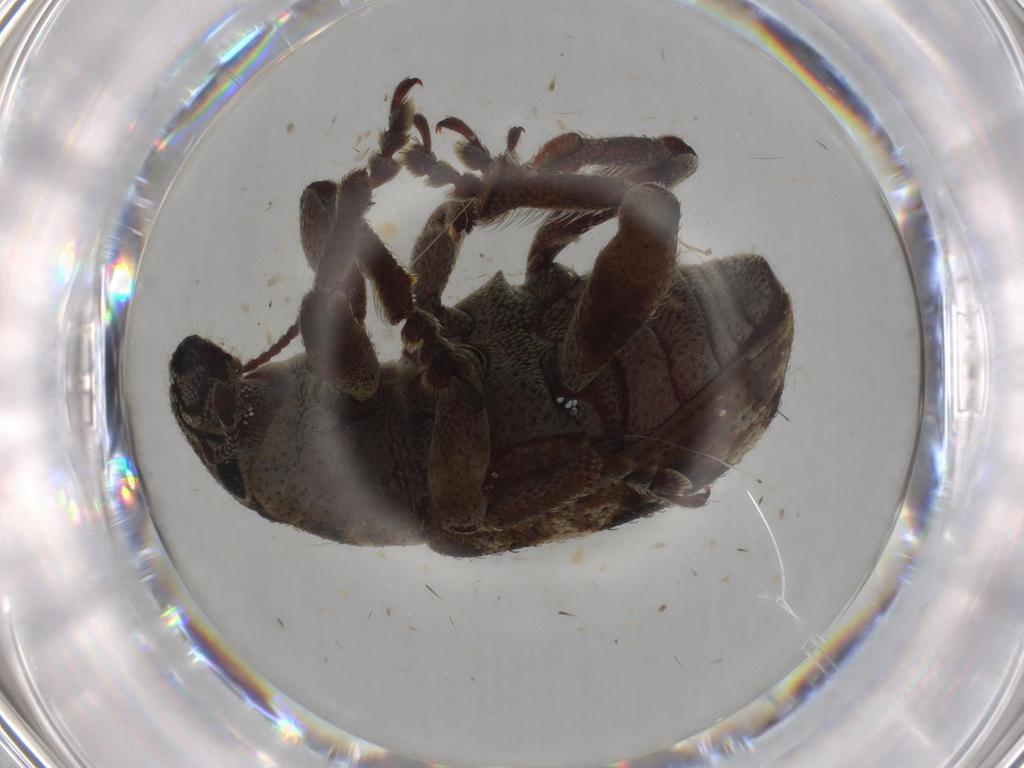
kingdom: Animalia
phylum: Arthropoda
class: Insecta
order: Coleoptera
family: Curculionidae
